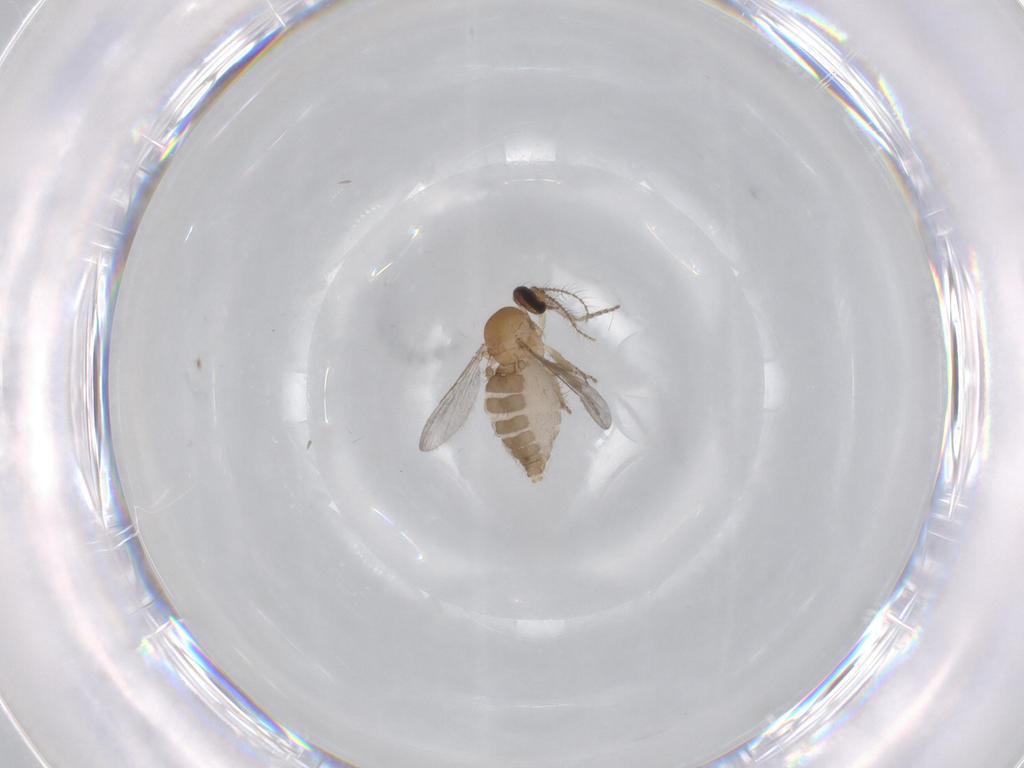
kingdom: Animalia
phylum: Arthropoda
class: Insecta
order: Diptera
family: Ceratopogonidae
